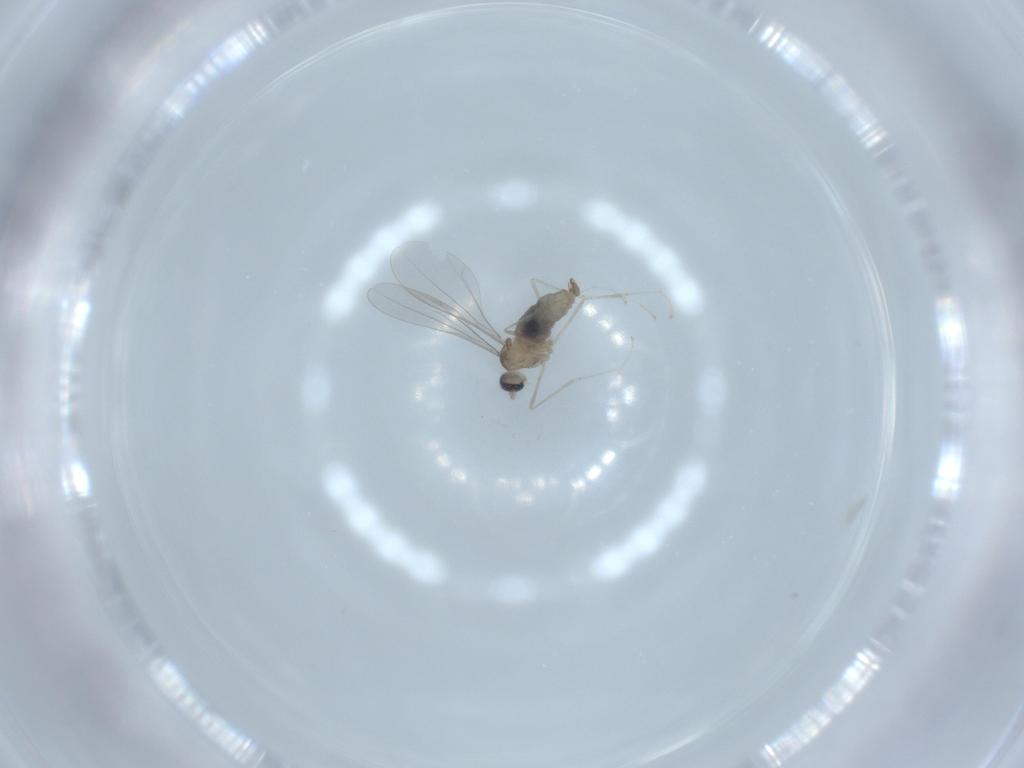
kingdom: Animalia
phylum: Arthropoda
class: Insecta
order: Diptera
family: Cecidomyiidae
